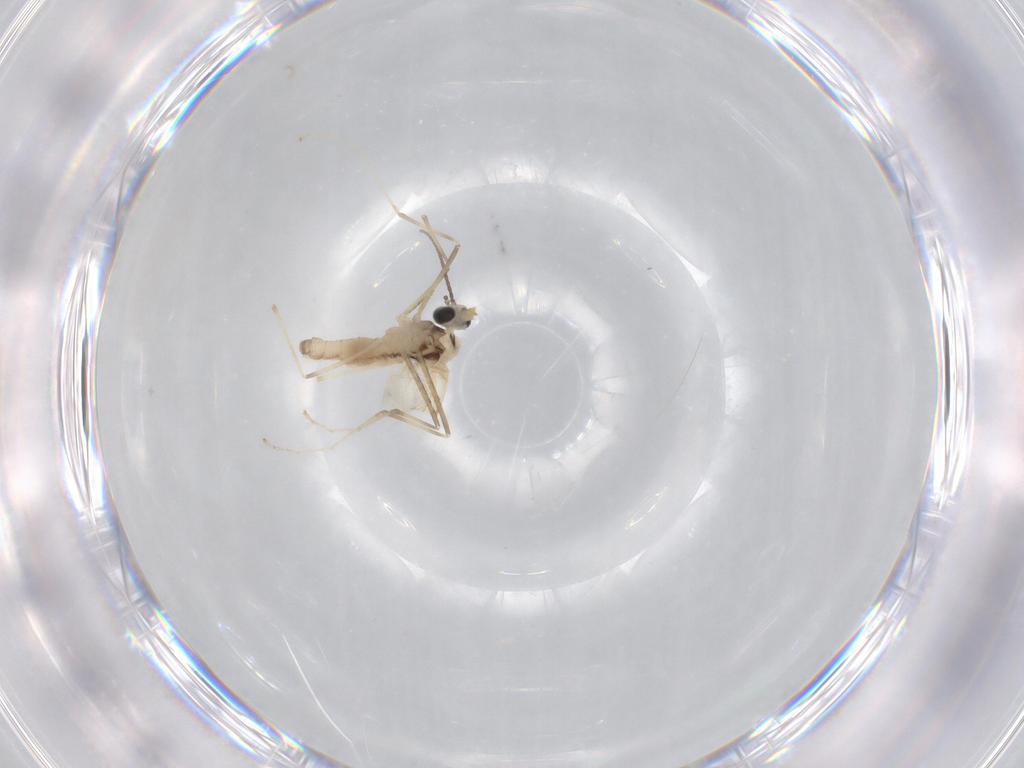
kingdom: Animalia
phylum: Arthropoda
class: Insecta
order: Diptera
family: Cecidomyiidae
